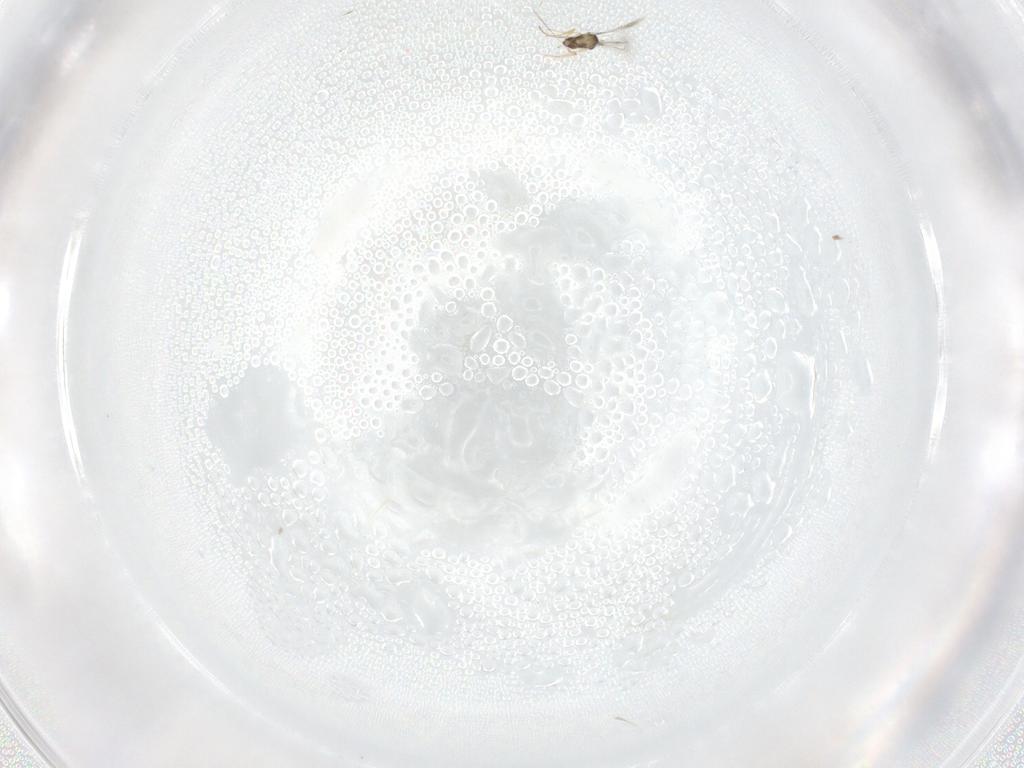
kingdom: Animalia
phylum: Arthropoda
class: Insecta
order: Hymenoptera
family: Mymaridae
